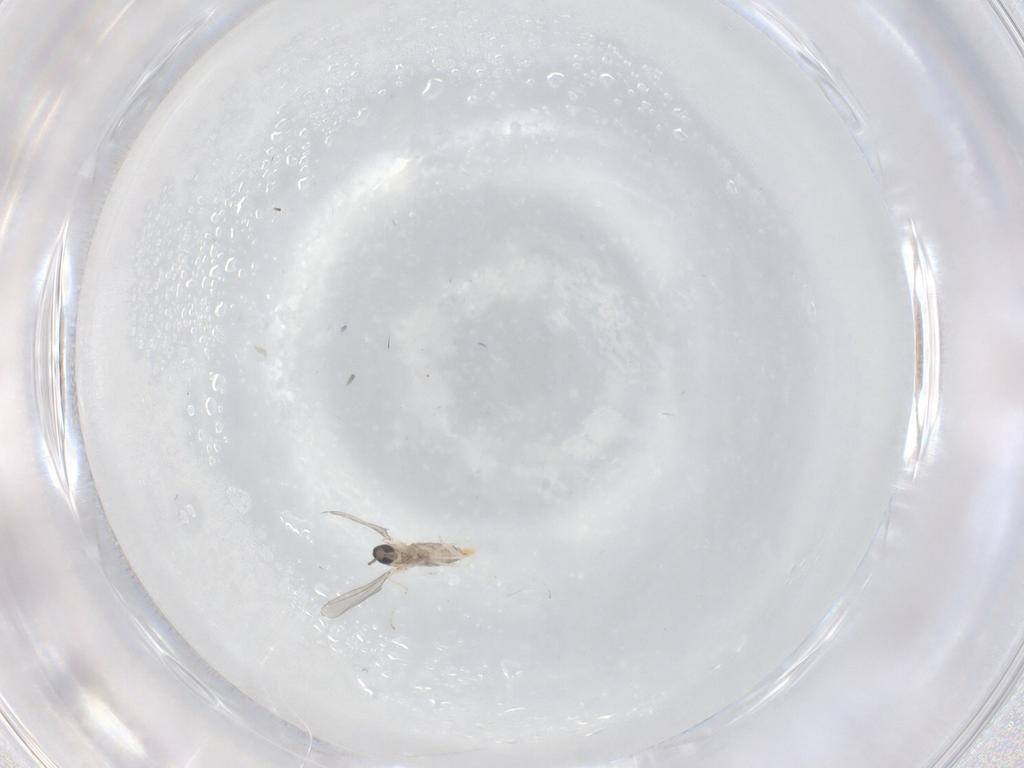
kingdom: Animalia
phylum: Arthropoda
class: Insecta
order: Diptera
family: Cecidomyiidae
